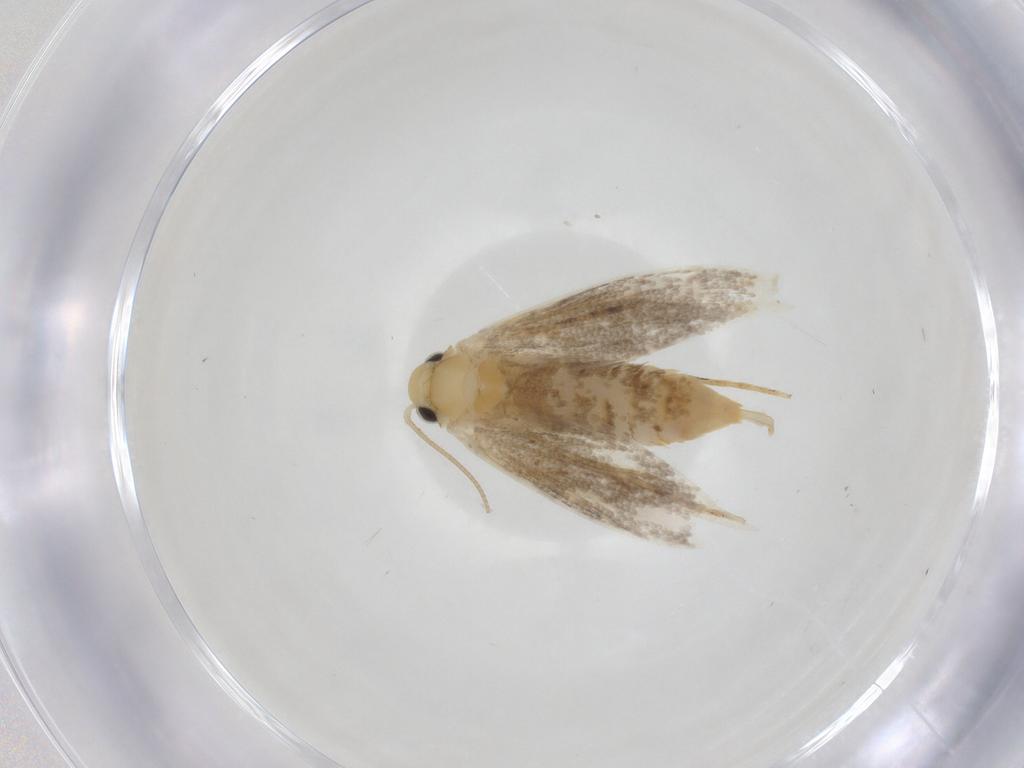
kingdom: Animalia
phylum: Arthropoda
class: Insecta
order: Lepidoptera
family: Tineidae
